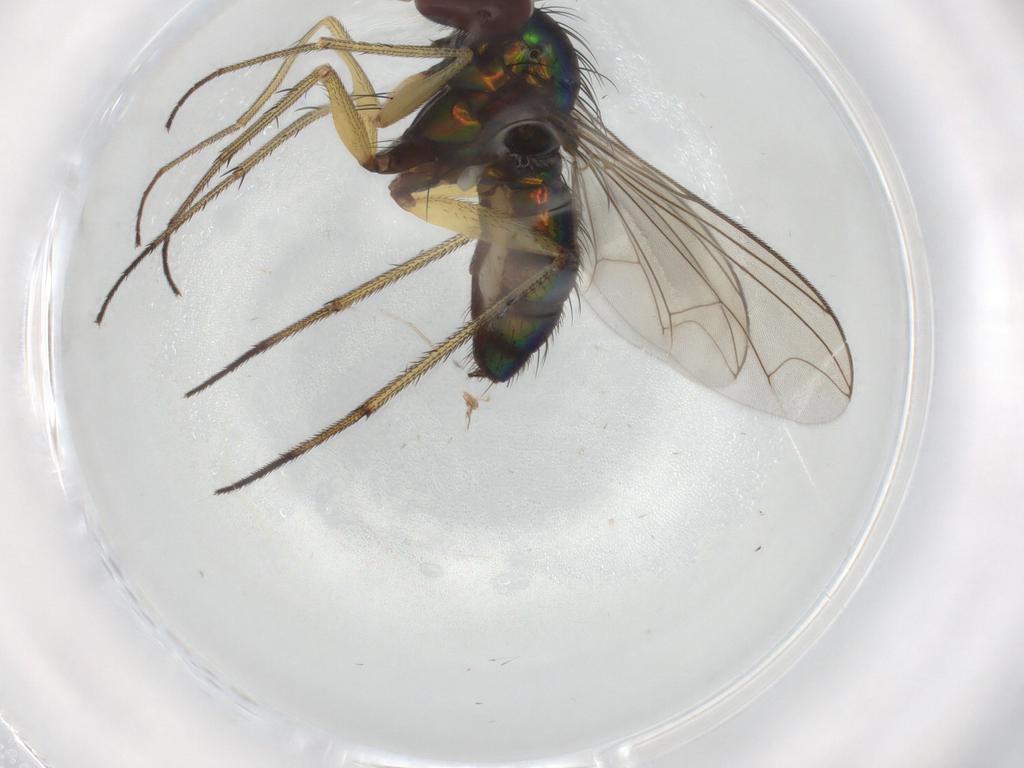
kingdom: Animalia
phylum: Arthropoda
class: Insecta
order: Diptera
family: Dolichopodidae
